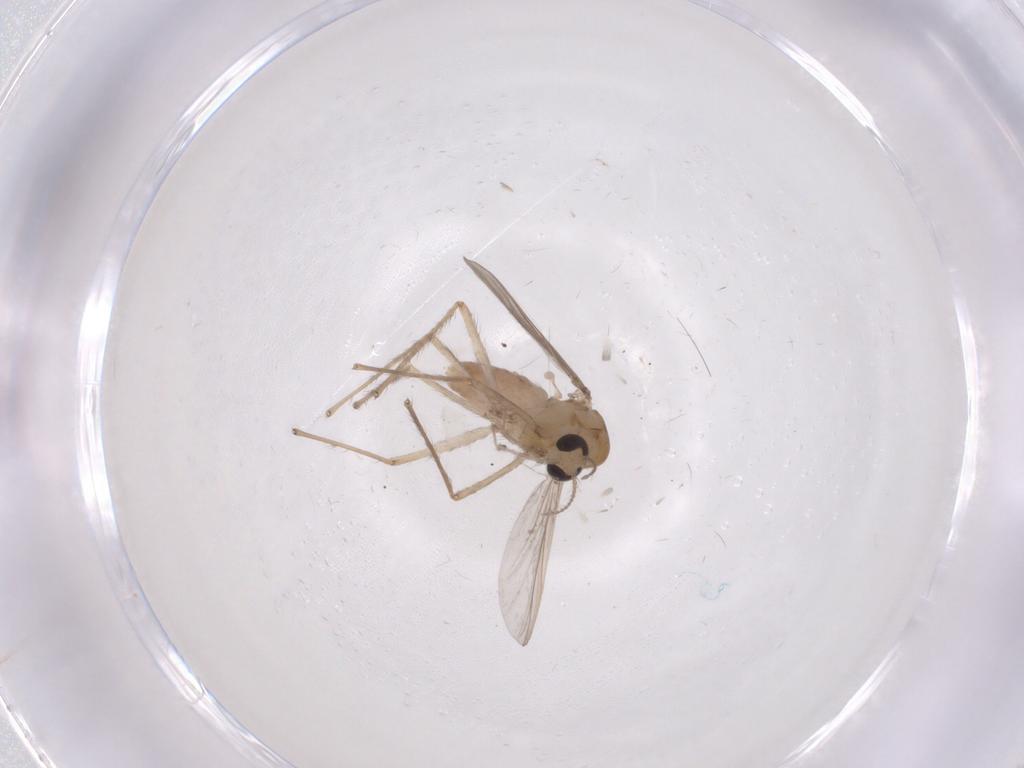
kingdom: Animalia
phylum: Arthropoda
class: Insecta
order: Diptera
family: Chironomidae
